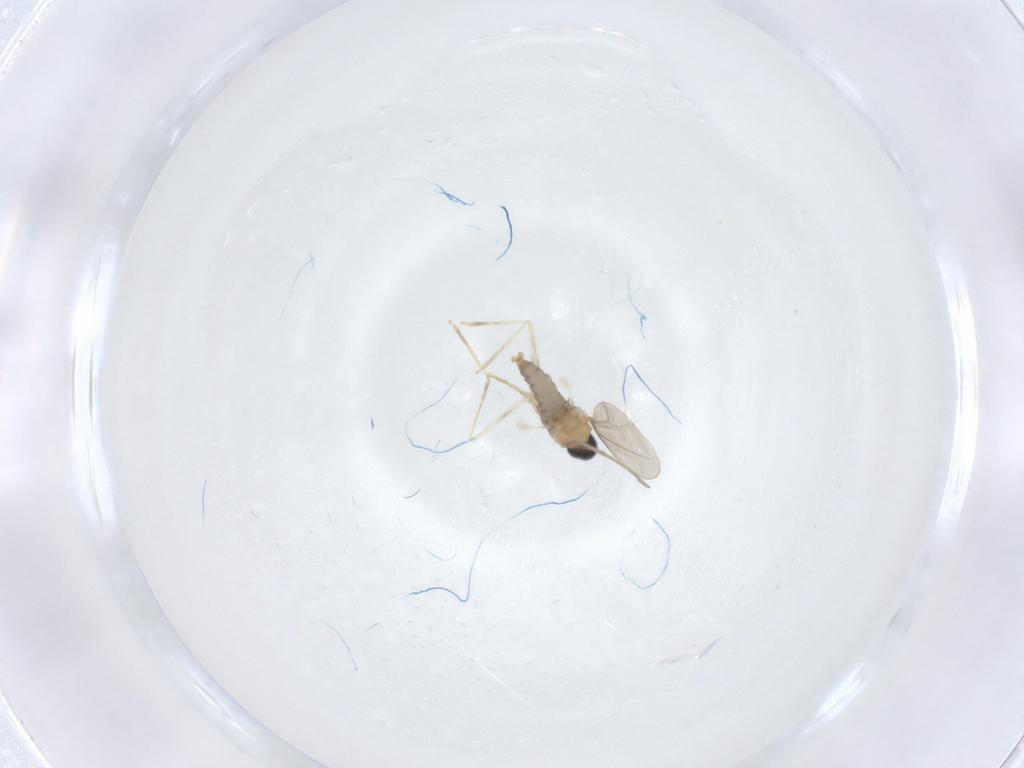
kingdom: Animalia
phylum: Arthropoda
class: Insecta
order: Diptera
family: Cecidomyiidae
